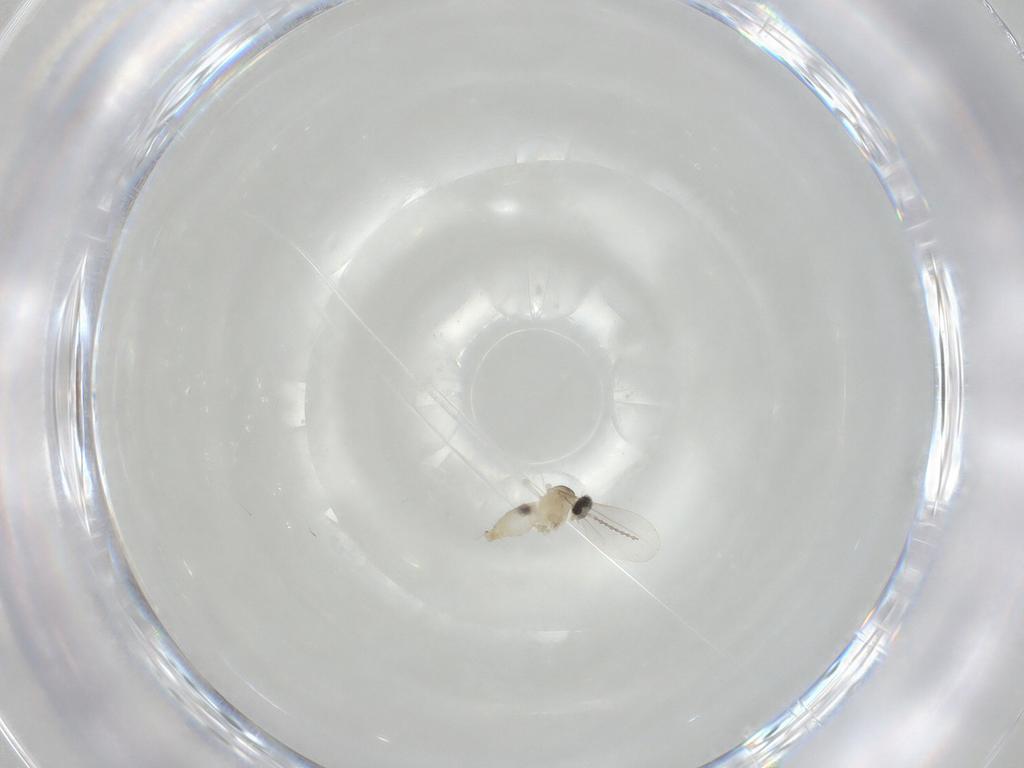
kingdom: Animalia
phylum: Arthropoda
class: Insecta
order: Diptera
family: Cecidomyiidae
